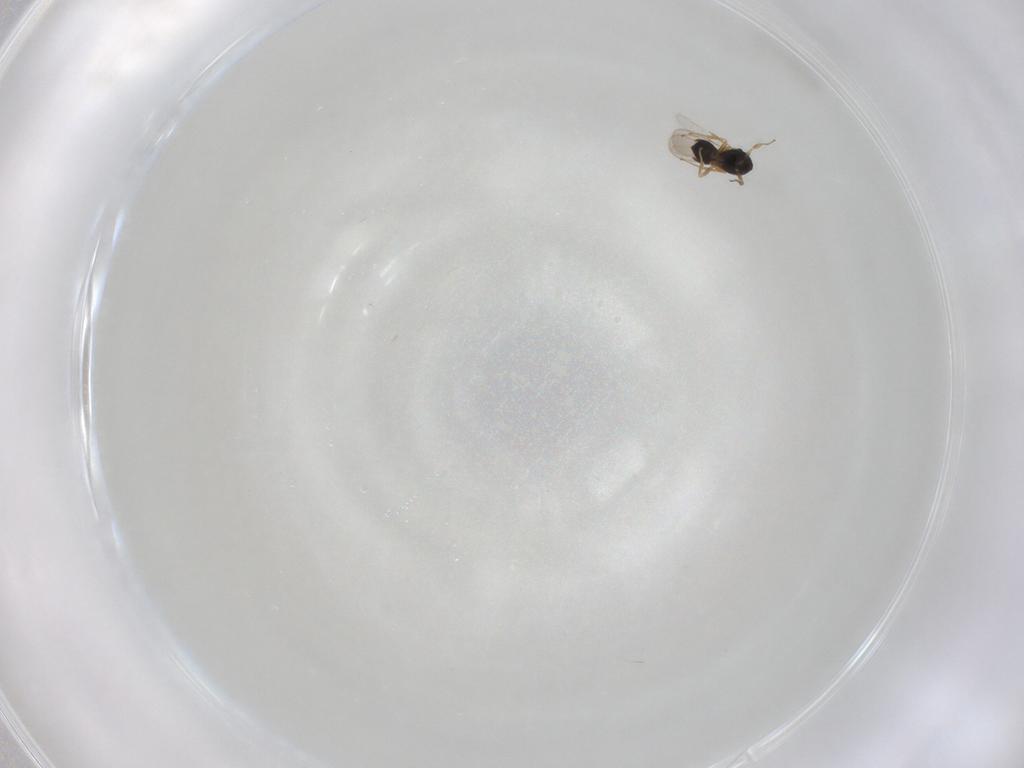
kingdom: Animalia
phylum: Arthropoda
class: Insecta
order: Hymenoptera
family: Scelionidae
